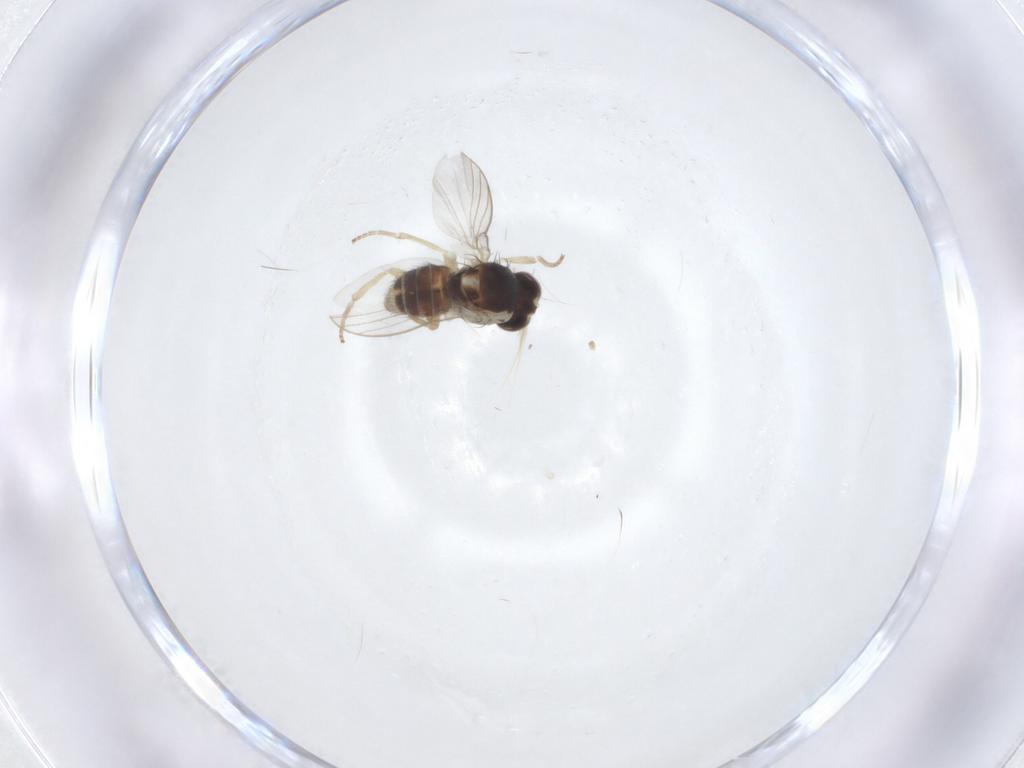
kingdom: Animalia
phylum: Arthropoda
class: Insecta
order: Diptera
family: Agromyzidae
